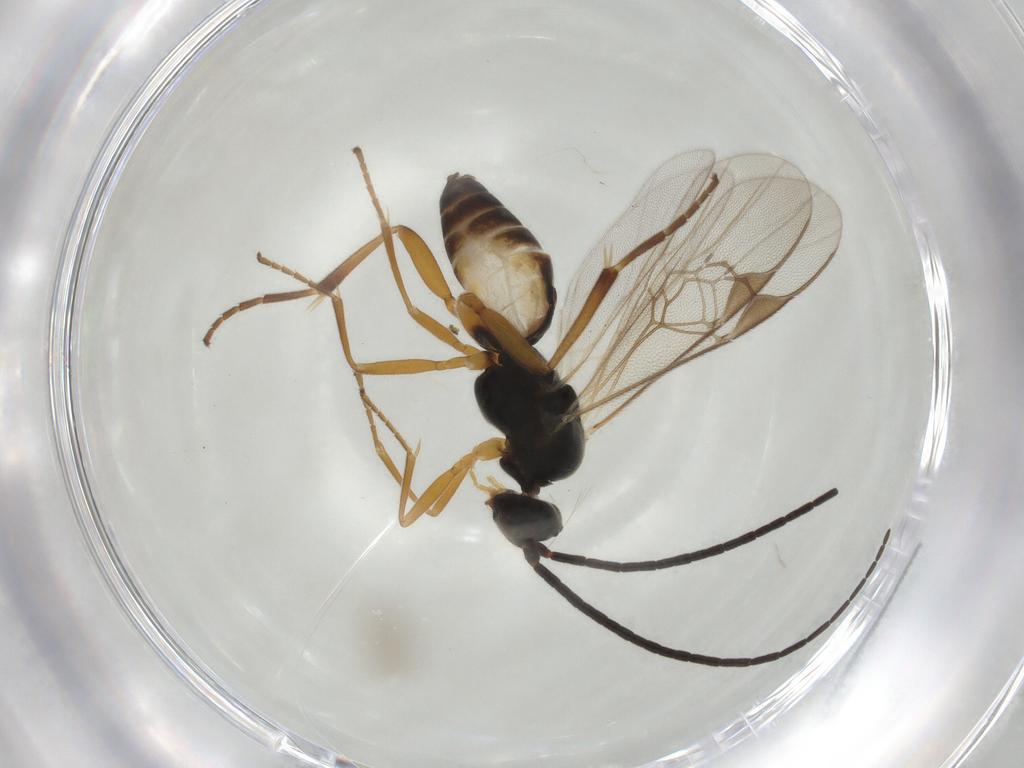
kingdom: Animalia
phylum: Arthropoda
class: Insecta
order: Hymenoptera
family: Braconidae
